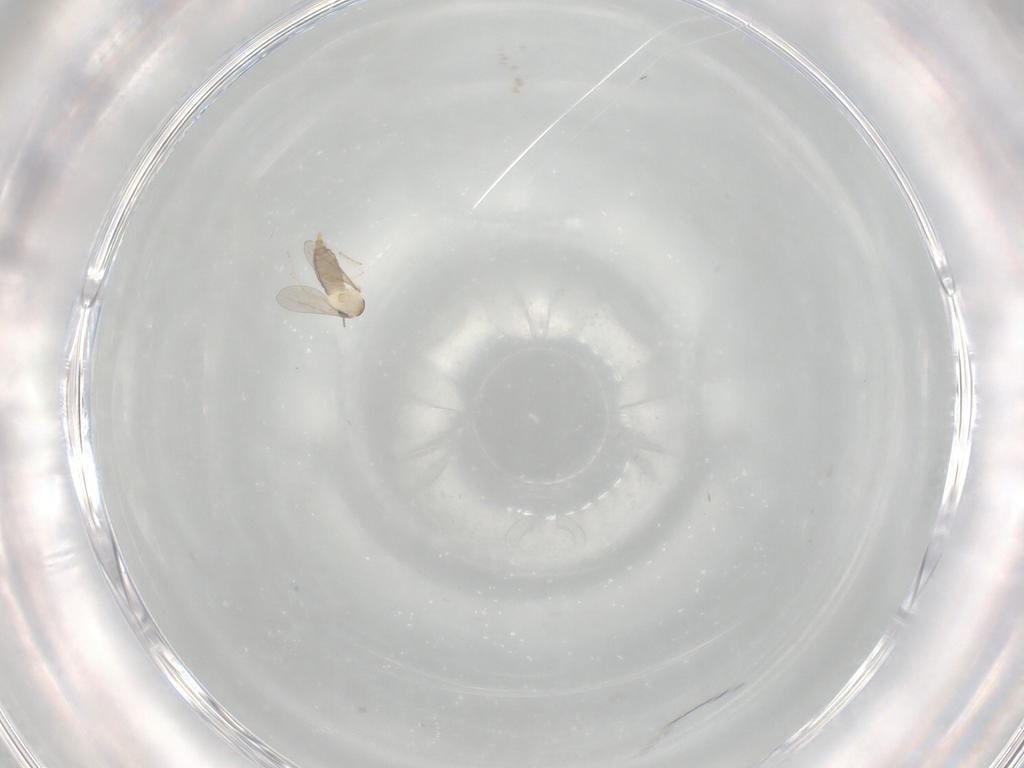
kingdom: Animalia
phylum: Arthropoda
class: Insecta
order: Diptera
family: Cecidomyiidae
